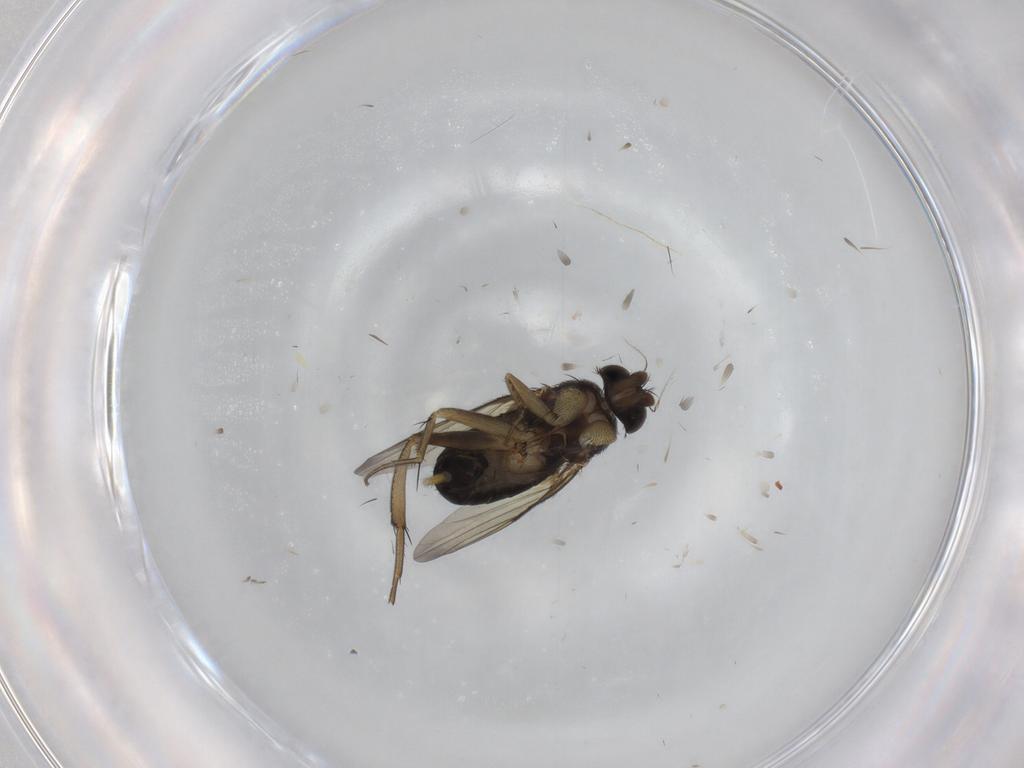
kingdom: Animalia
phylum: Arthropoda
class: Insecta
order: Diptera
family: Phoridae
